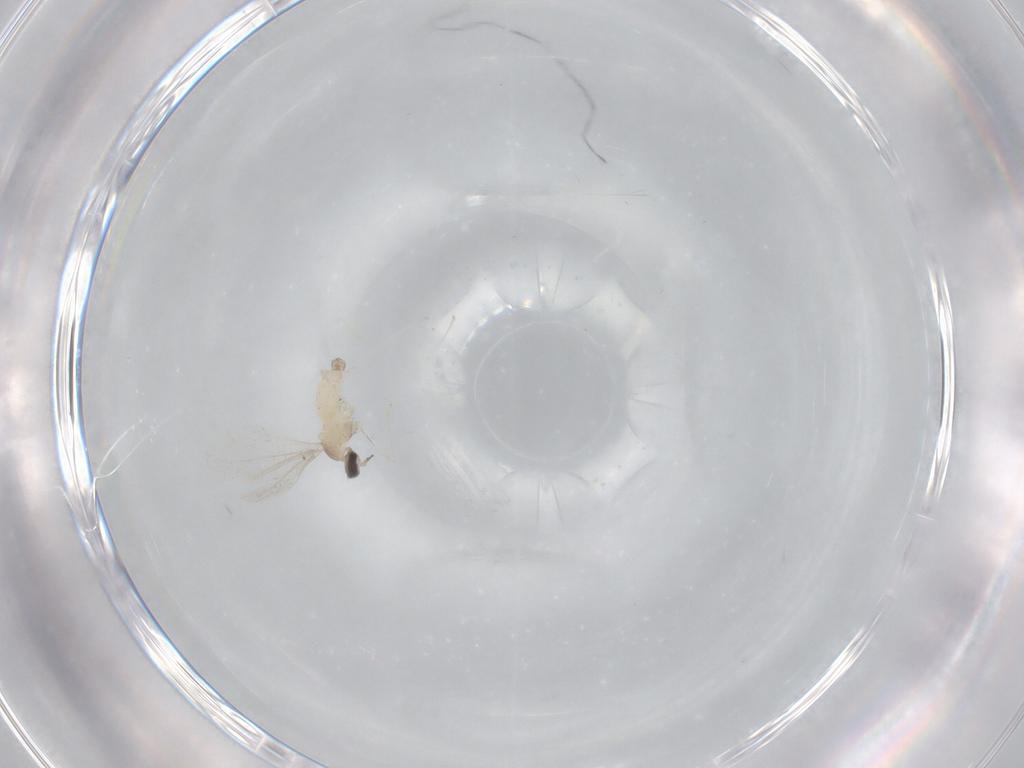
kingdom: Animalia
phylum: Arthropoda
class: Insecta
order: Diptera
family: Cecidomyiidae
